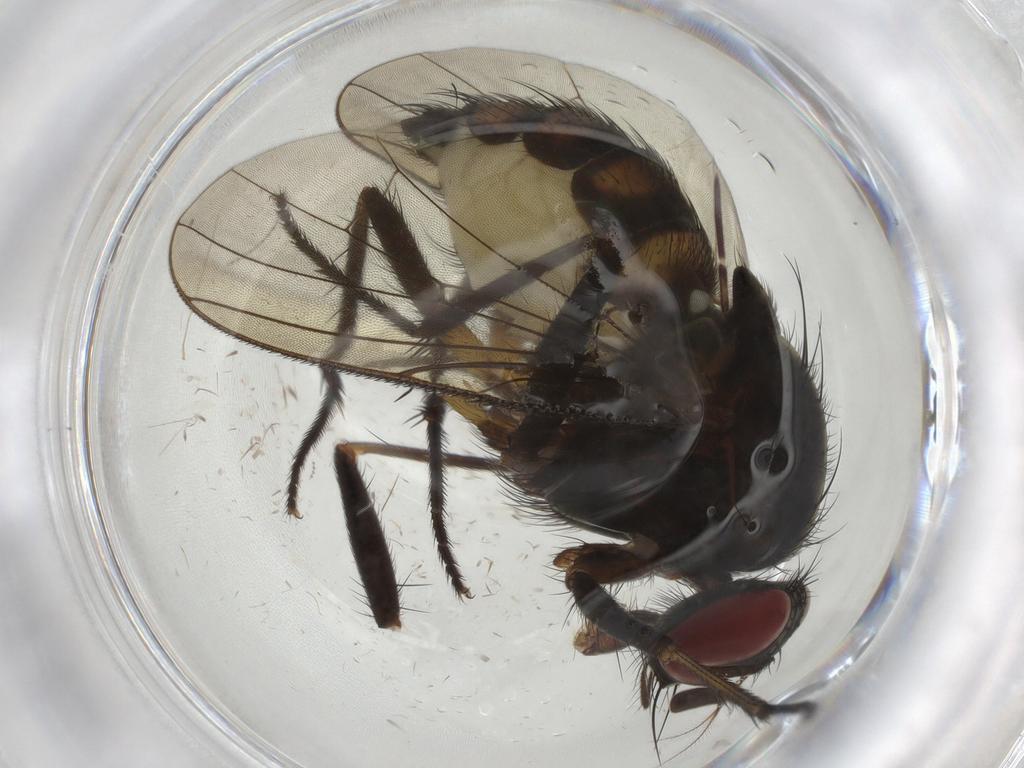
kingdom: Animalia
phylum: Arthropoda
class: Insecta
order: Diptera
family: Anthomyiidae
